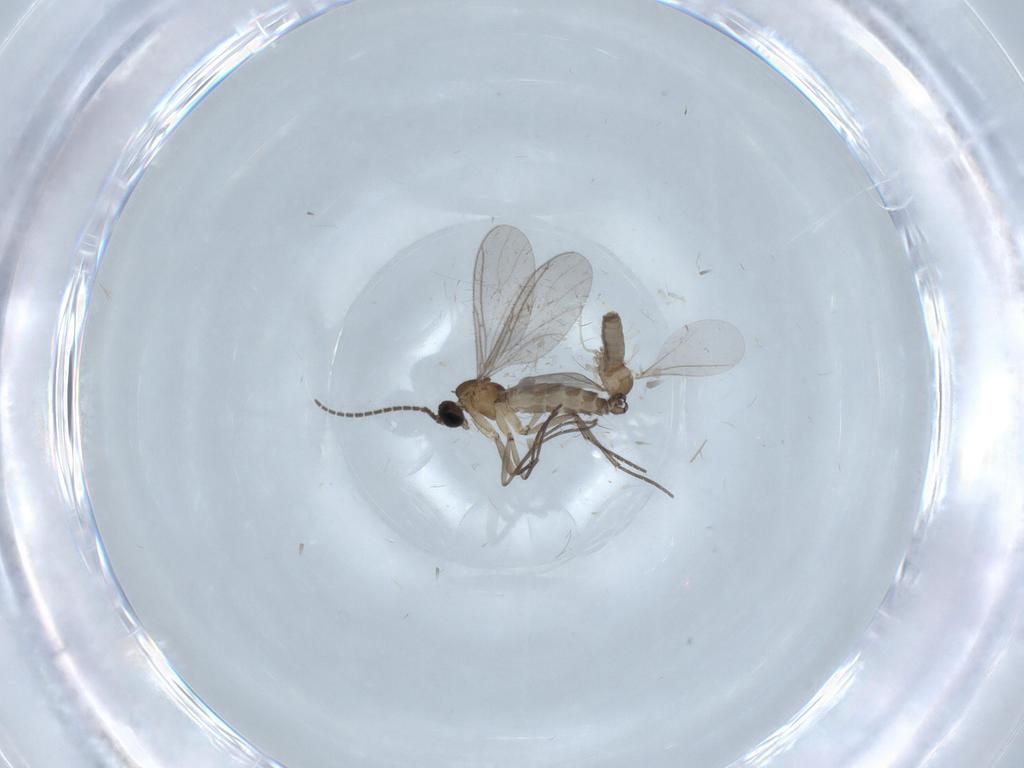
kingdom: Animalia
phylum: Arthropoda
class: Insecta
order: Diptera
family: Cecidomyiidae
